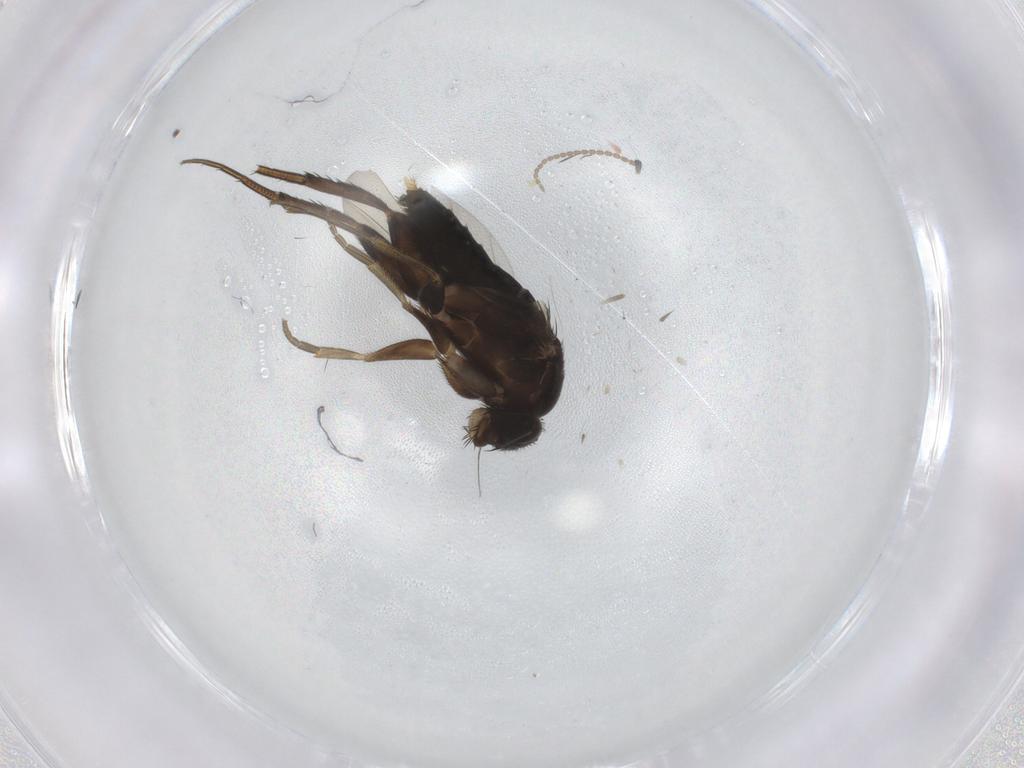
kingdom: Animalia
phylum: Arthropoda
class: Insecta
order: Diptera
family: Phoridae
